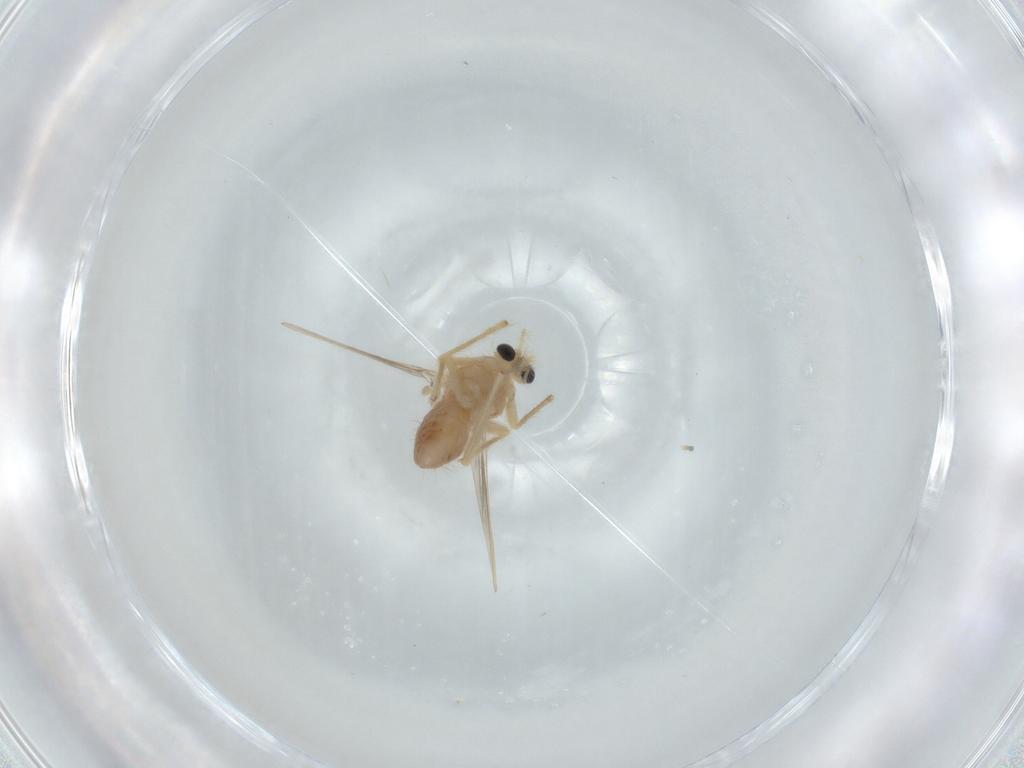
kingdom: Animalia
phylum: Arthropoda
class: Insecta
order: Diptera
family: Chironomidae
